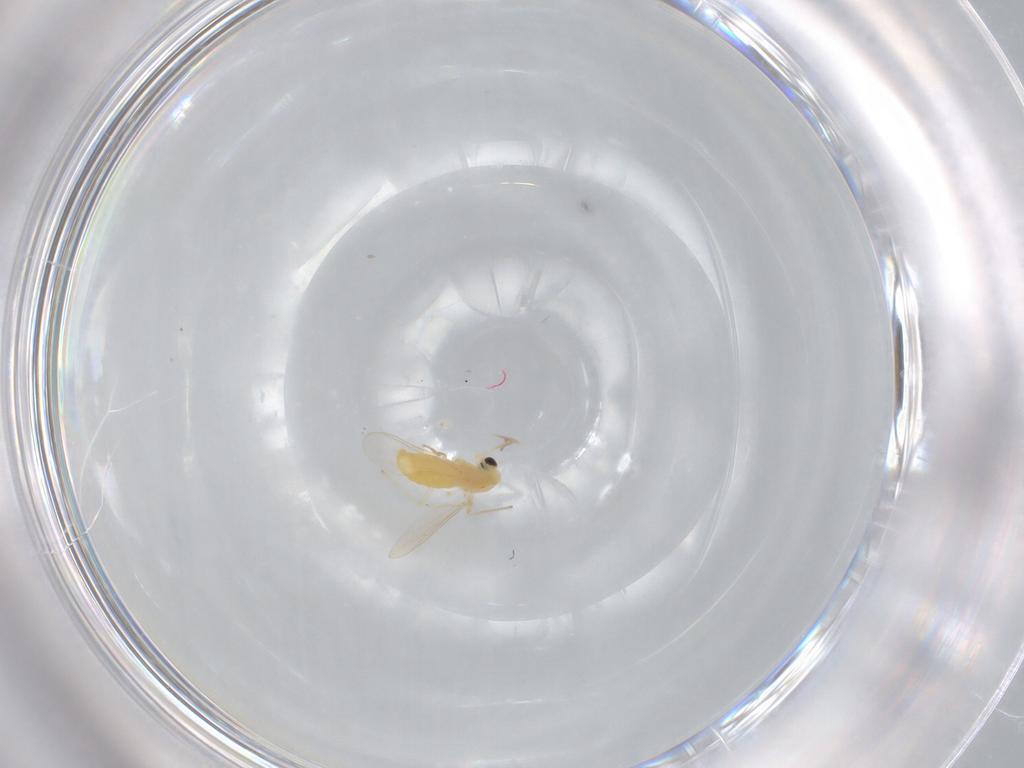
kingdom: Animalia
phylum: Arthropoda
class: Insecta
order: Diptera
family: Chironomidae
